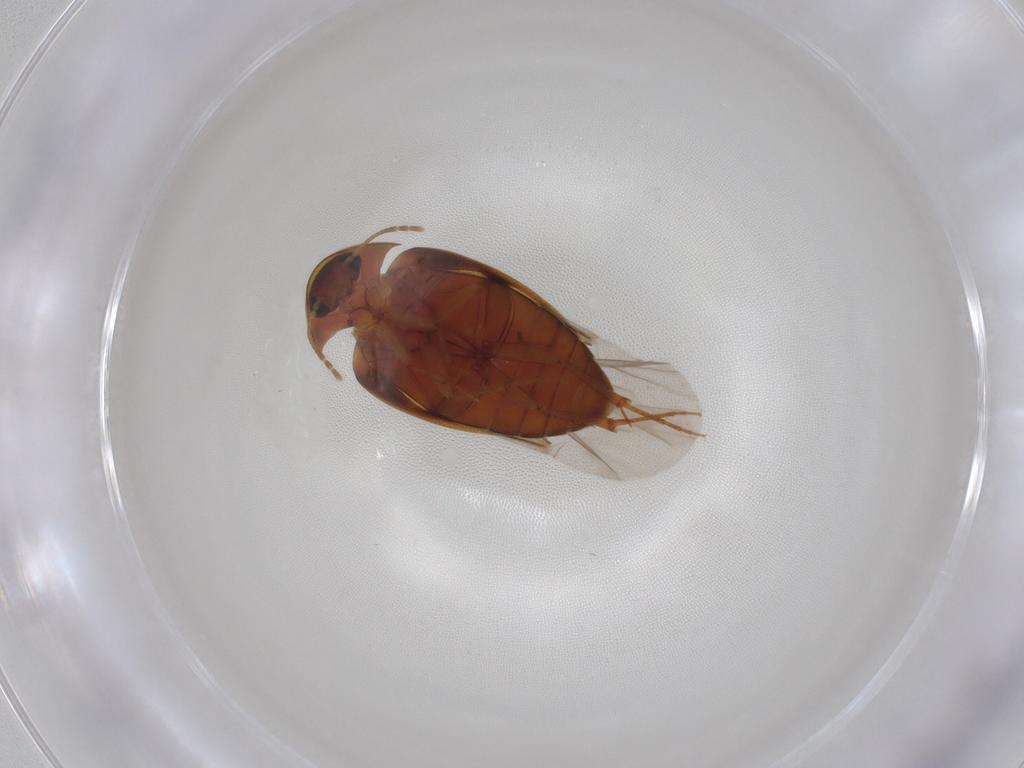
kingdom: Animalia
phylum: Arthropoda
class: Insecta
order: Coleoptera
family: Mycetophagidae
